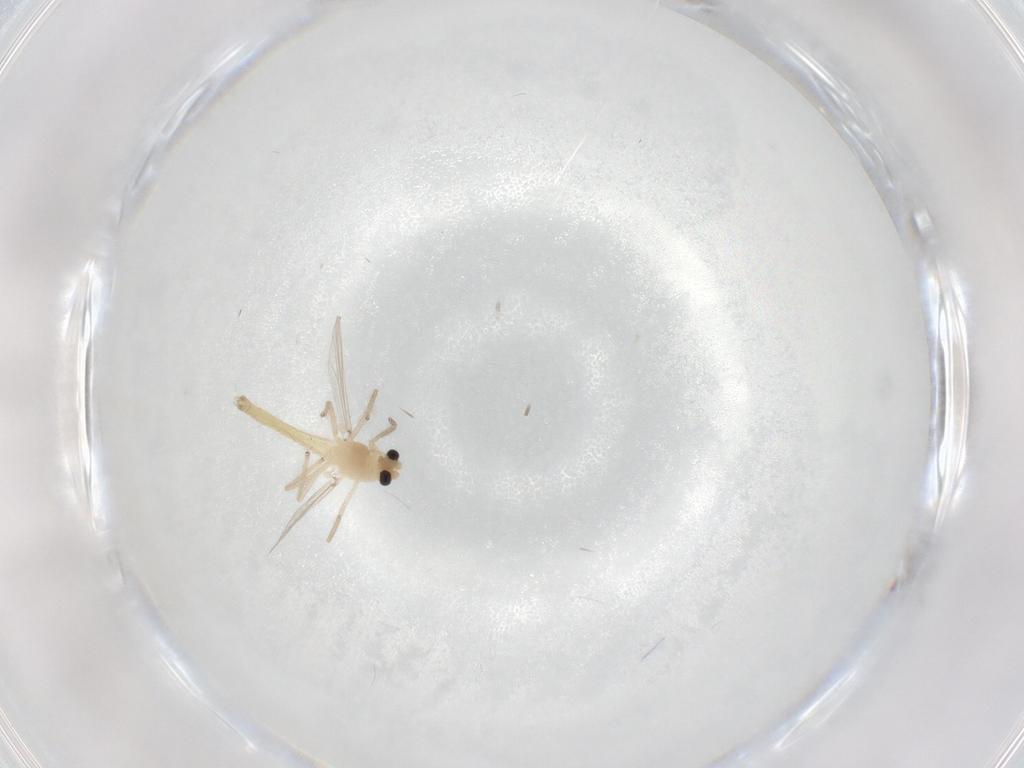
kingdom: Animalia
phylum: Arthropoda
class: Insecta
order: Diptera
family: Chironomidae
